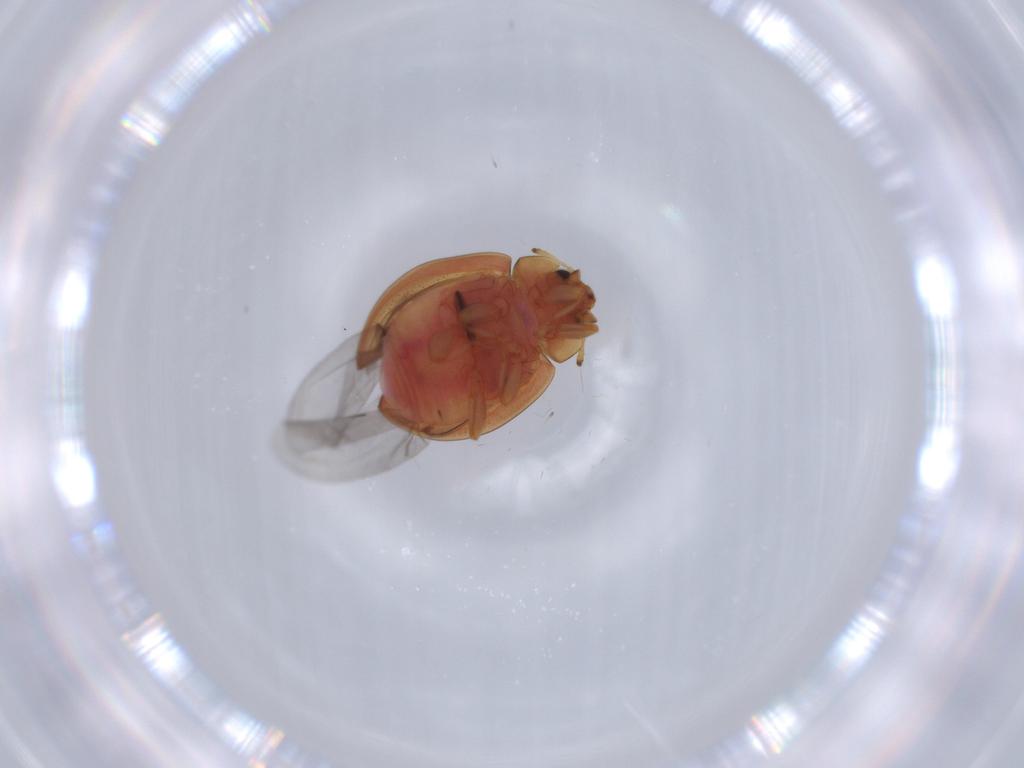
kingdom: Animalia
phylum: Arthropoda
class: Insecta
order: Coleoptera
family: Coccinellidae
